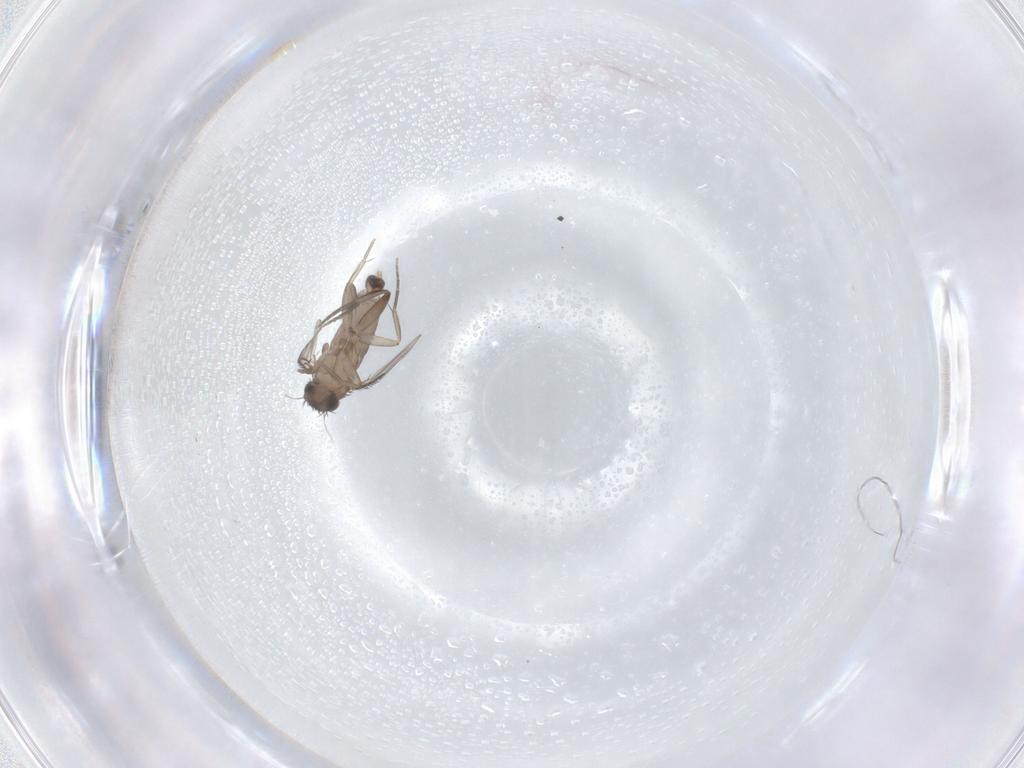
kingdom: Animalia
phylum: Arthropoda
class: Insecta
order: Diptera
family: Phoridae
